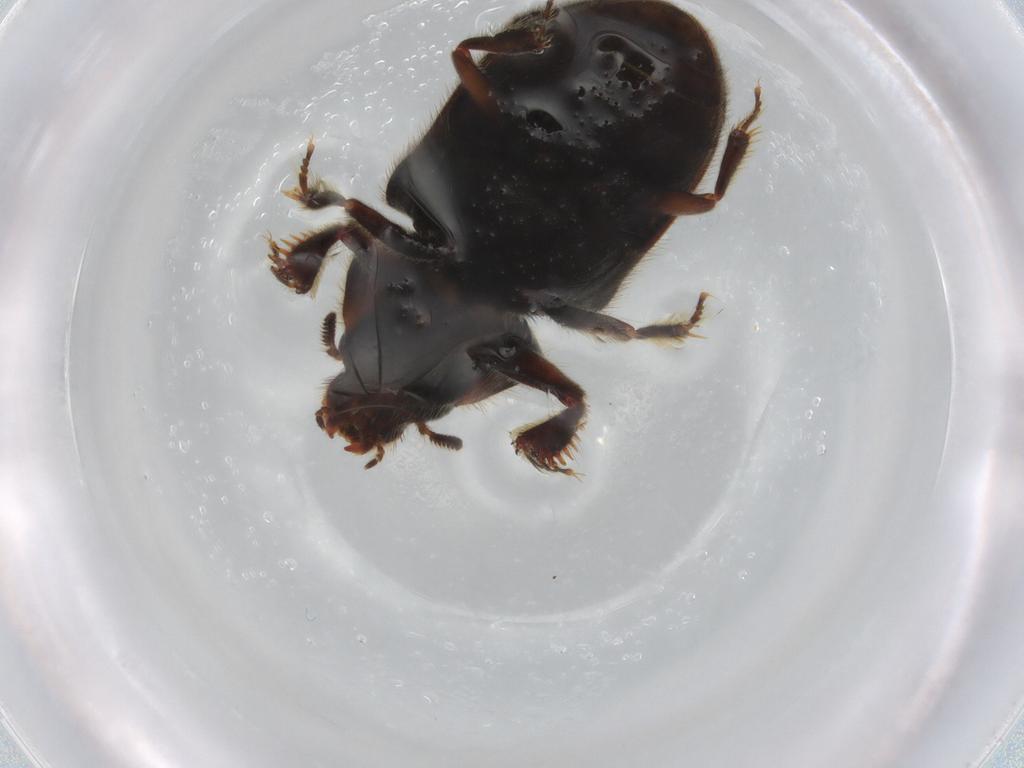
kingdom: Animalia
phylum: Arthropoda
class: Insecta
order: Coleoptera
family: Heteroceridae
